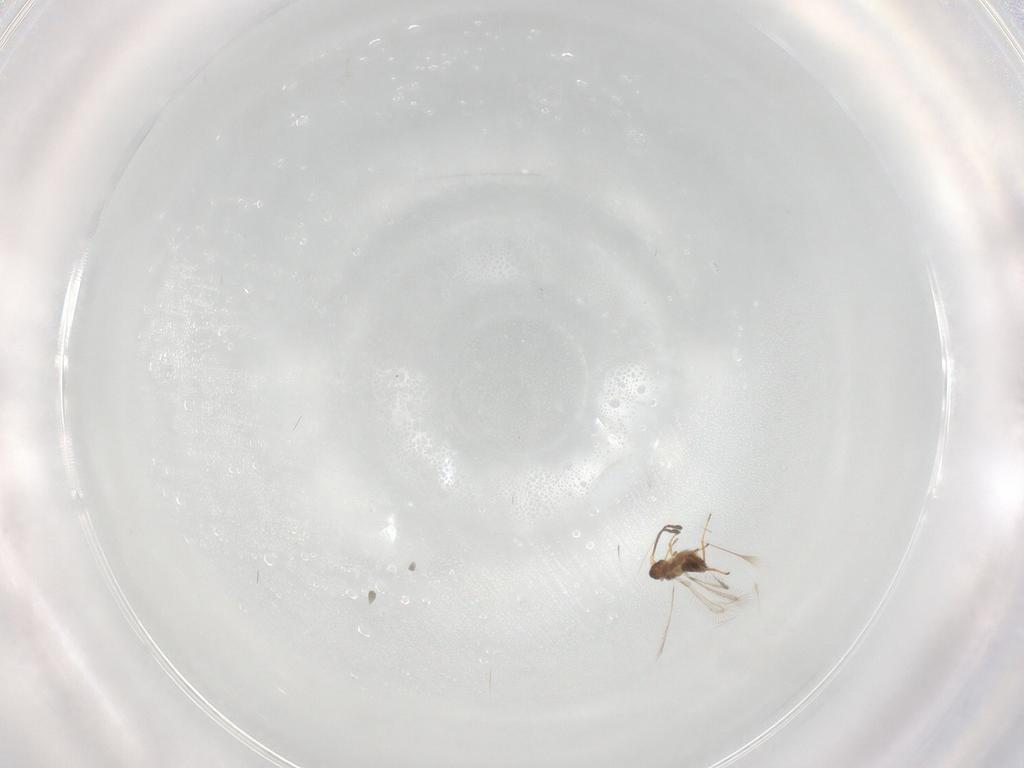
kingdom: Animalia
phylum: Arthropoda
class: Insecta
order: Hymenoptera
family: Mymaridae
